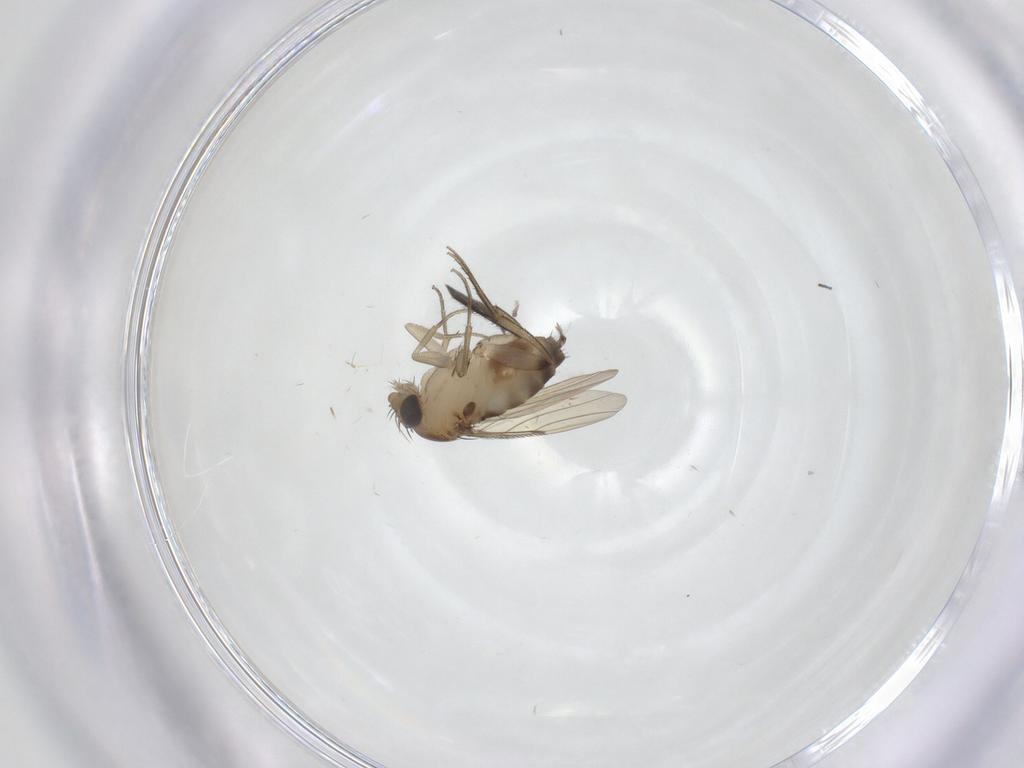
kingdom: Animalia
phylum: Arthropoda
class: Insecta
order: Diptera
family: Phoridae
